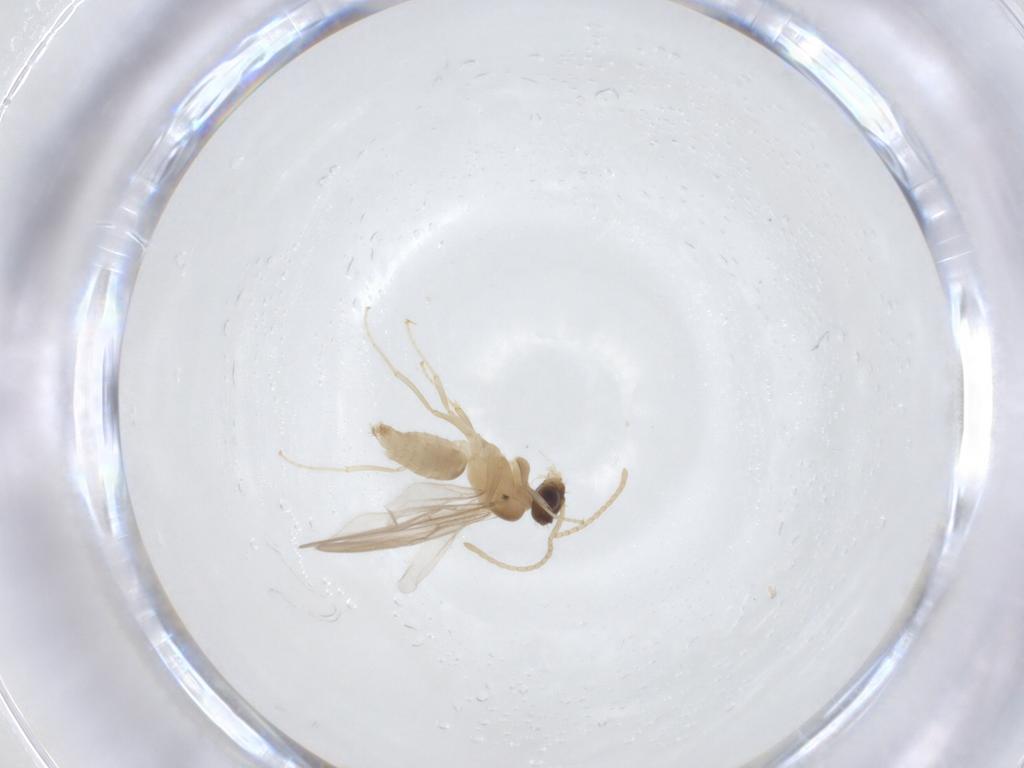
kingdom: Animalia
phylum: Arthropoda
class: Insecta
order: Hymenoptera
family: Formicidae
